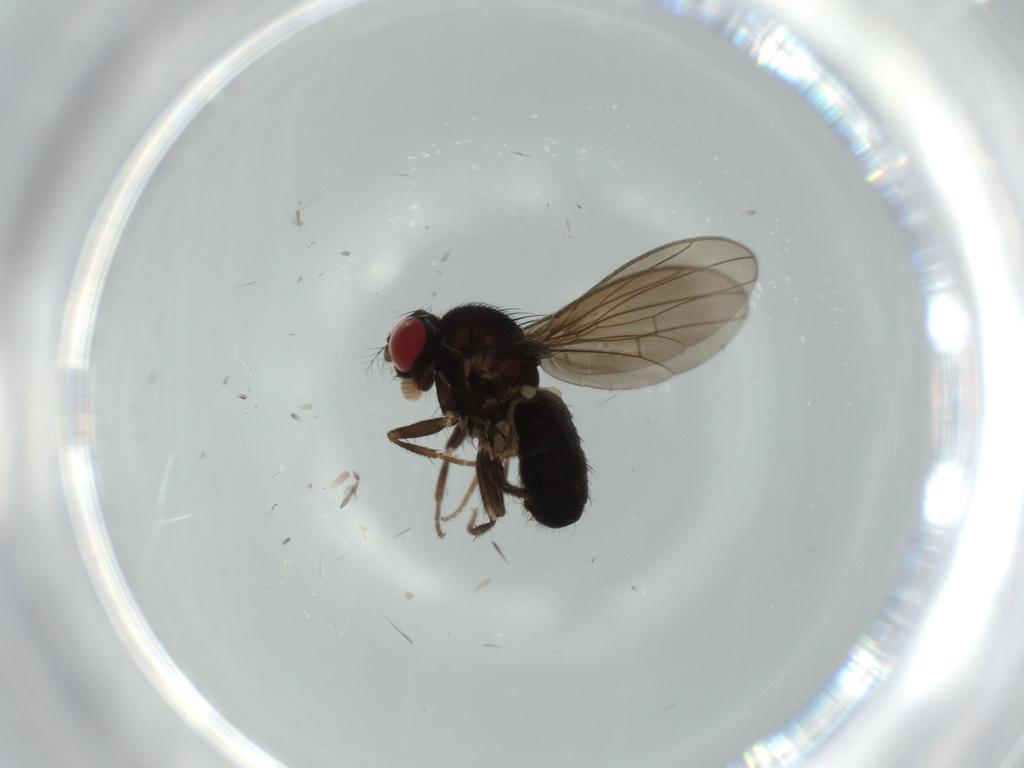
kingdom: Animalia
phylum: Arthropoda
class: Insecta
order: Diptera
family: Drosophilidae
